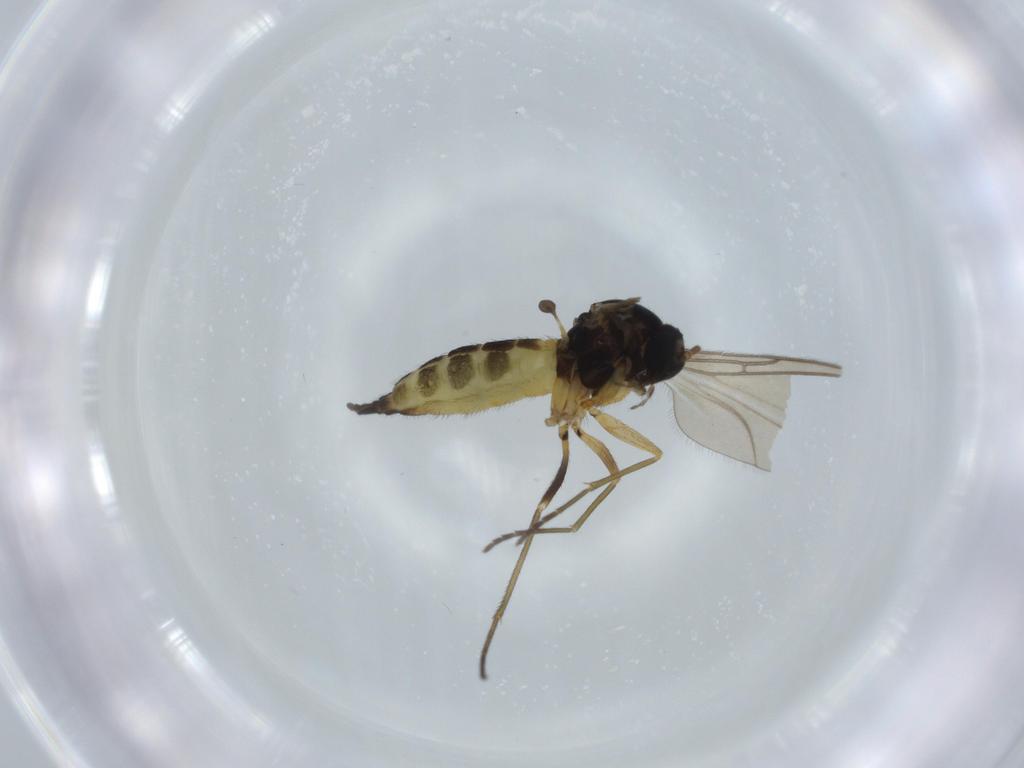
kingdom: Animalia
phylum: Arthropoda
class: Insecta
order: Diptera
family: Sciaridae
